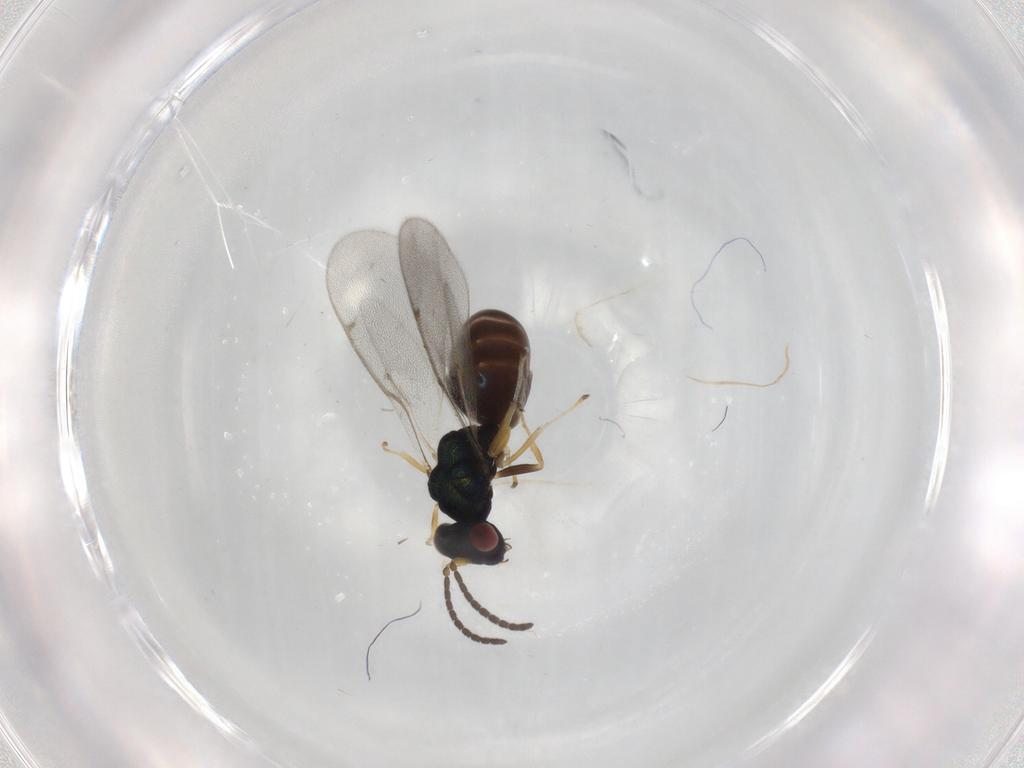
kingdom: Animalia
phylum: Arthropoda
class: Insecta
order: Hymenoptera
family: Eucharitidae
